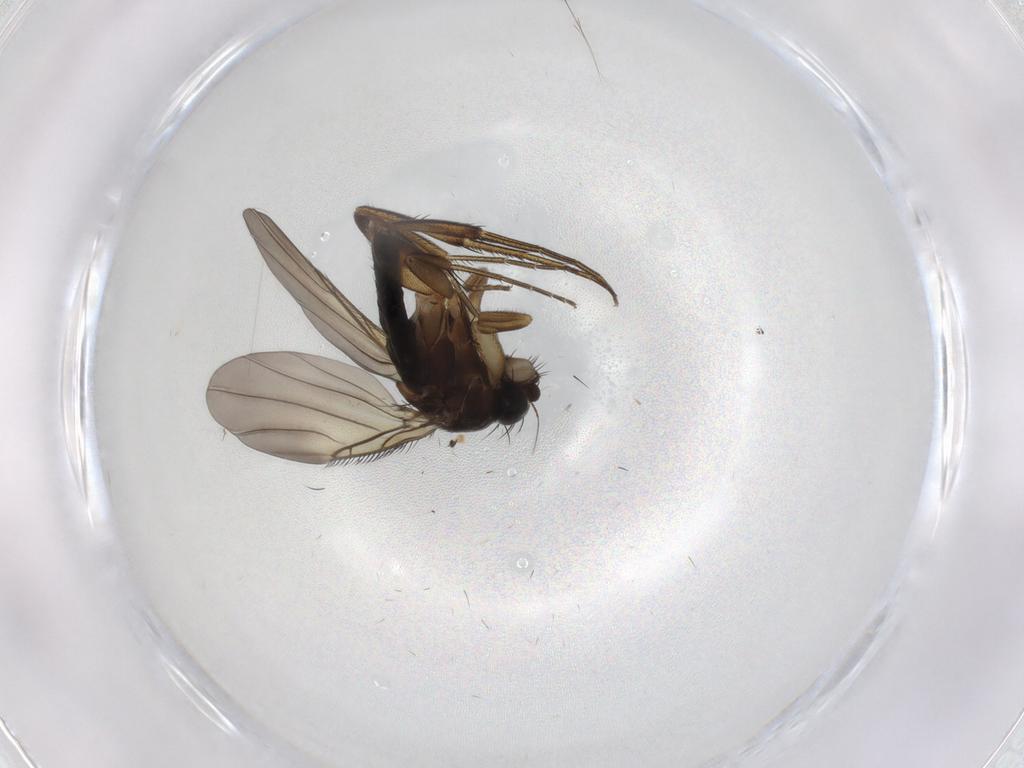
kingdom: Animalia
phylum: Arthropoda
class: Insecta
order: Diptera
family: Phoridae
